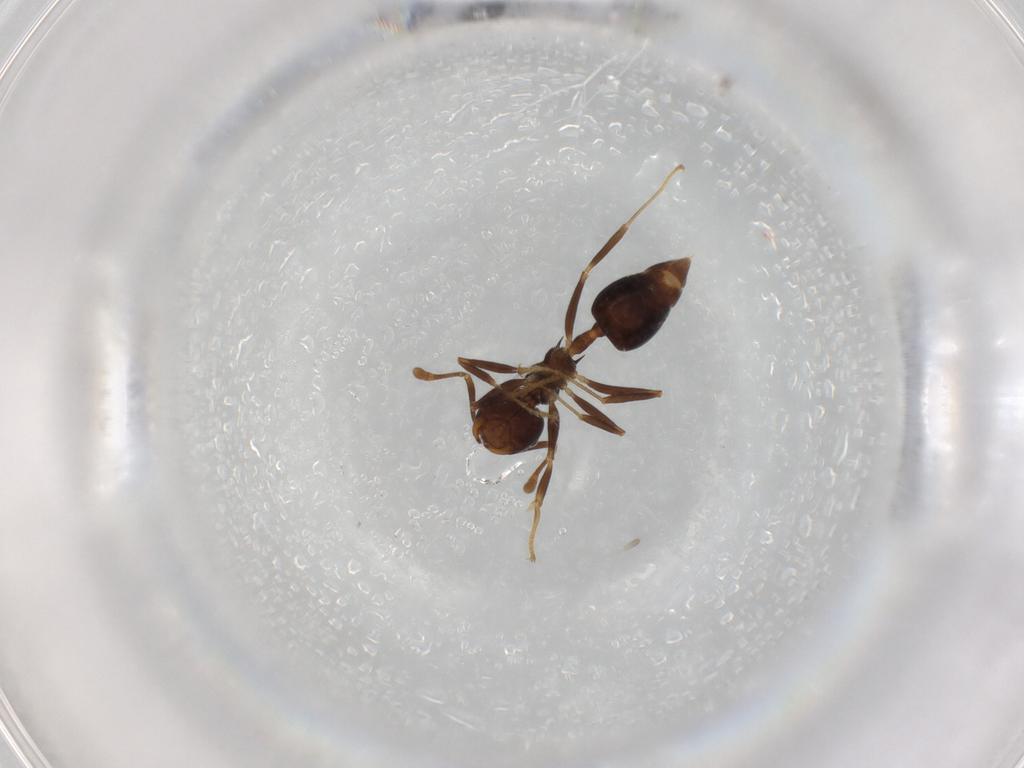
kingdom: Animalia
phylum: Arthropoda
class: Insecta
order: Hymenoptera
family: Formicidae
